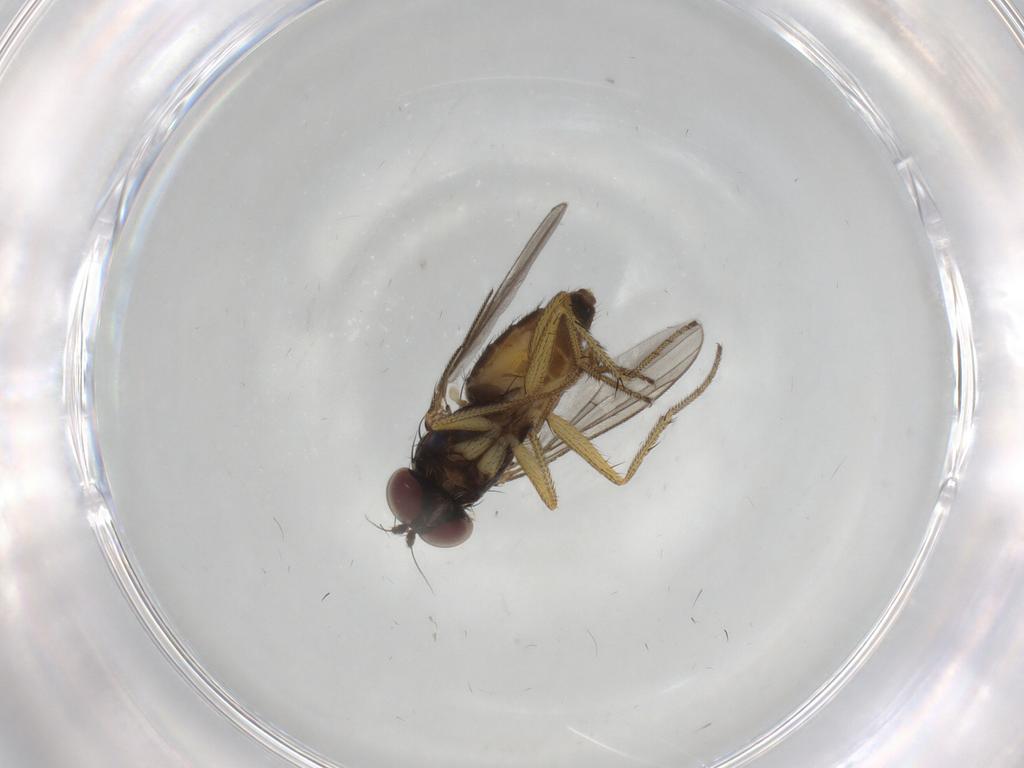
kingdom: Animalia
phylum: Arthropoda
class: Insecta
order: Diptera
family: Dolichopodidae
